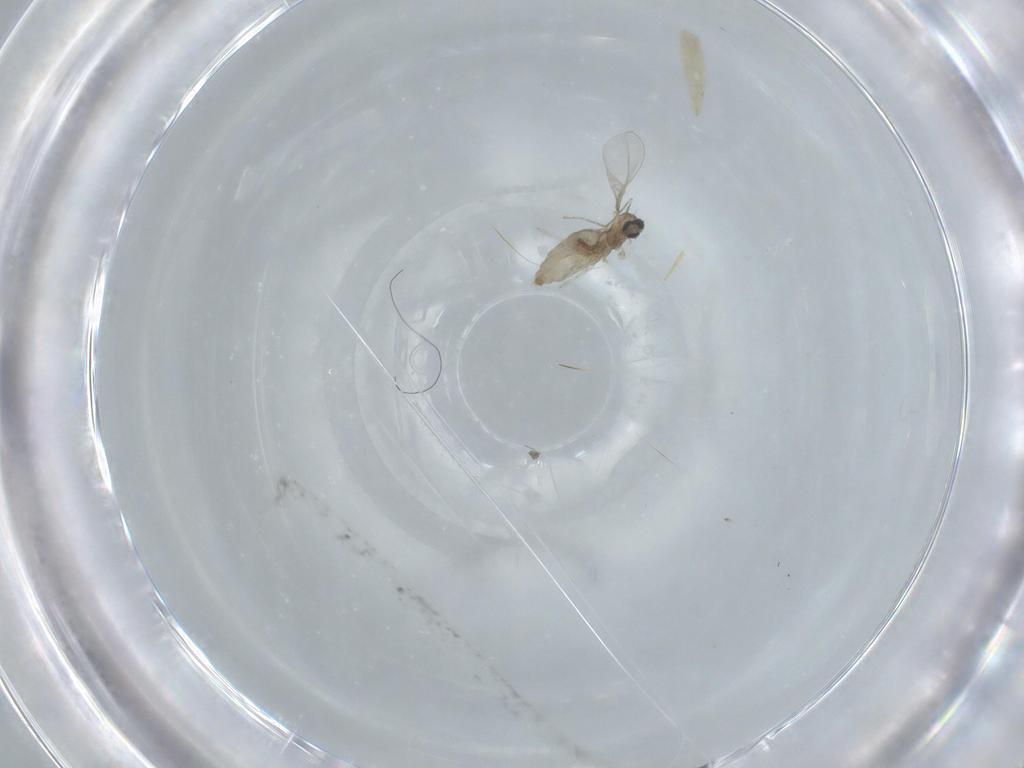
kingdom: Animalia
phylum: Arthropoda
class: Insecta
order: Diptera
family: Cecidomyiidae
